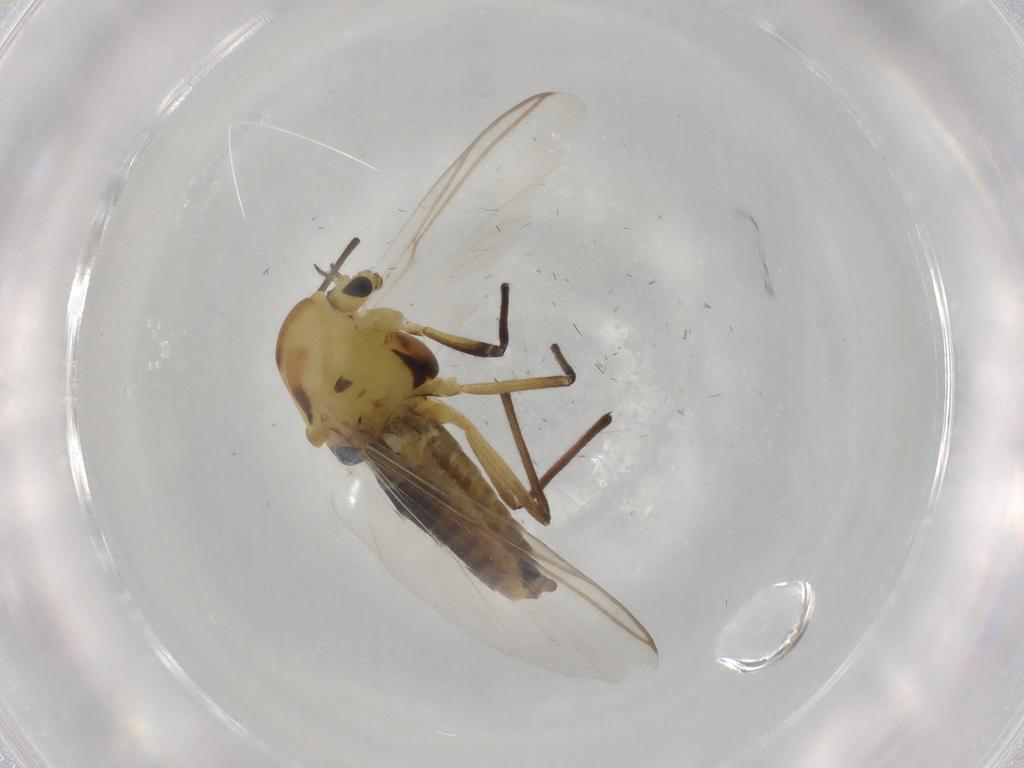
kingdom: Animalia
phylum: Arthropoda
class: Insecta
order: Diptera
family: Chironomidae
